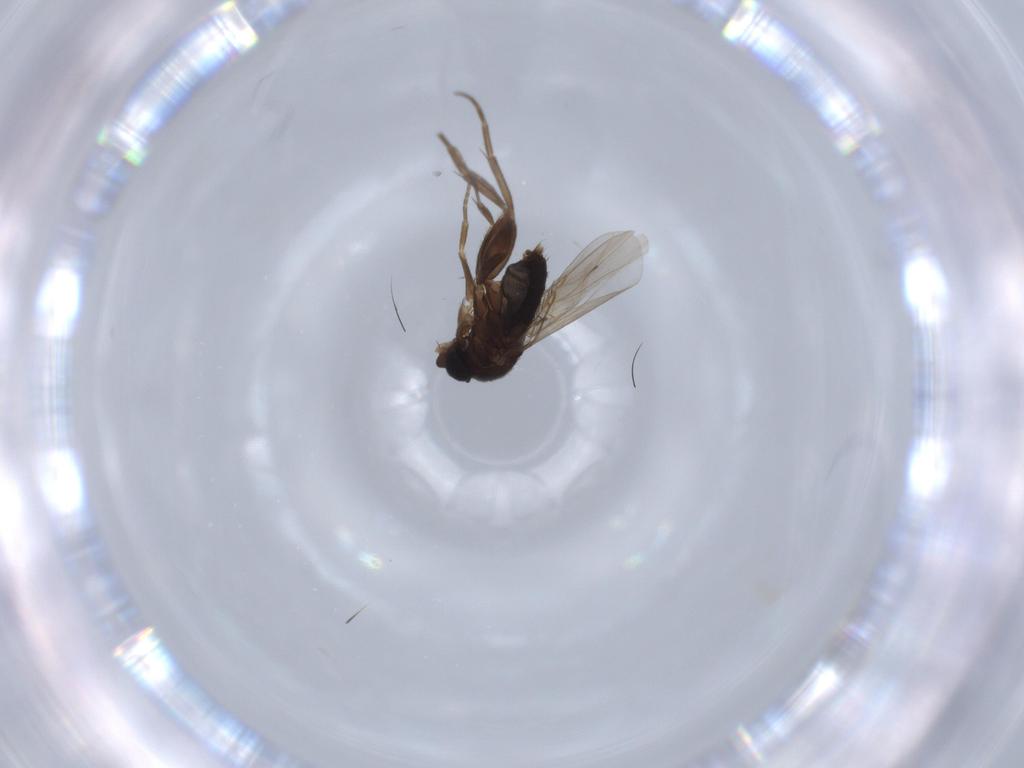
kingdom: Animalia
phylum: Arthropoda
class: Insecta
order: Diptera
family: Phoridae
